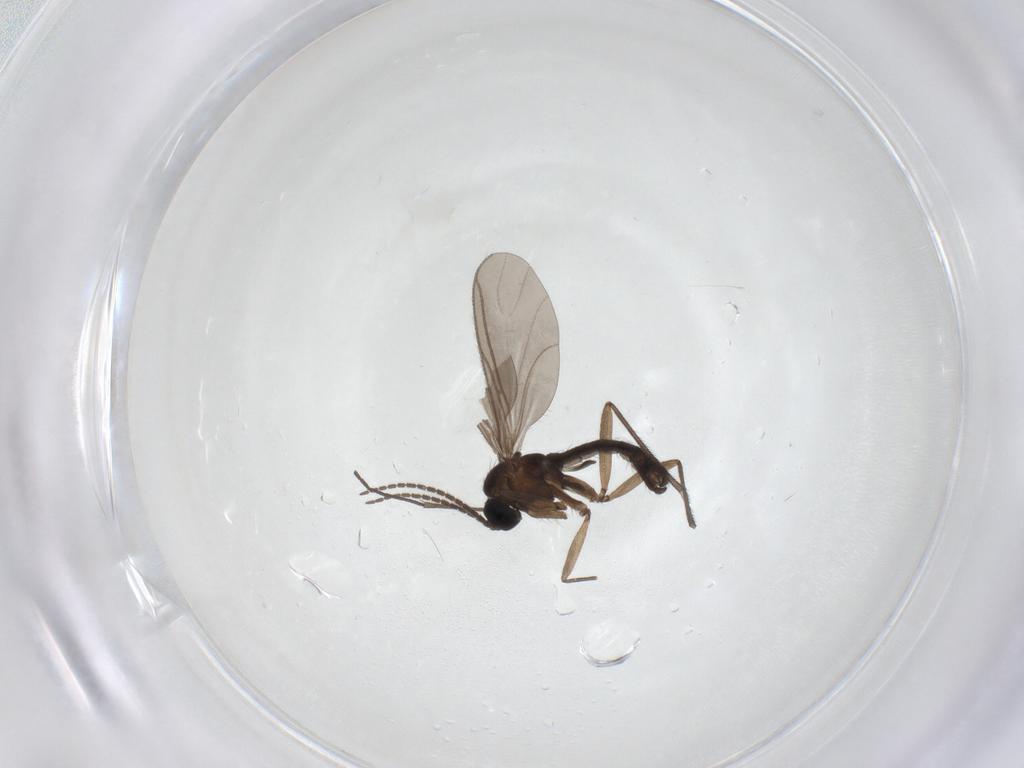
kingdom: Animalia
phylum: Arthropoda
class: Insecta
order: Diptera
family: Sciaridae
